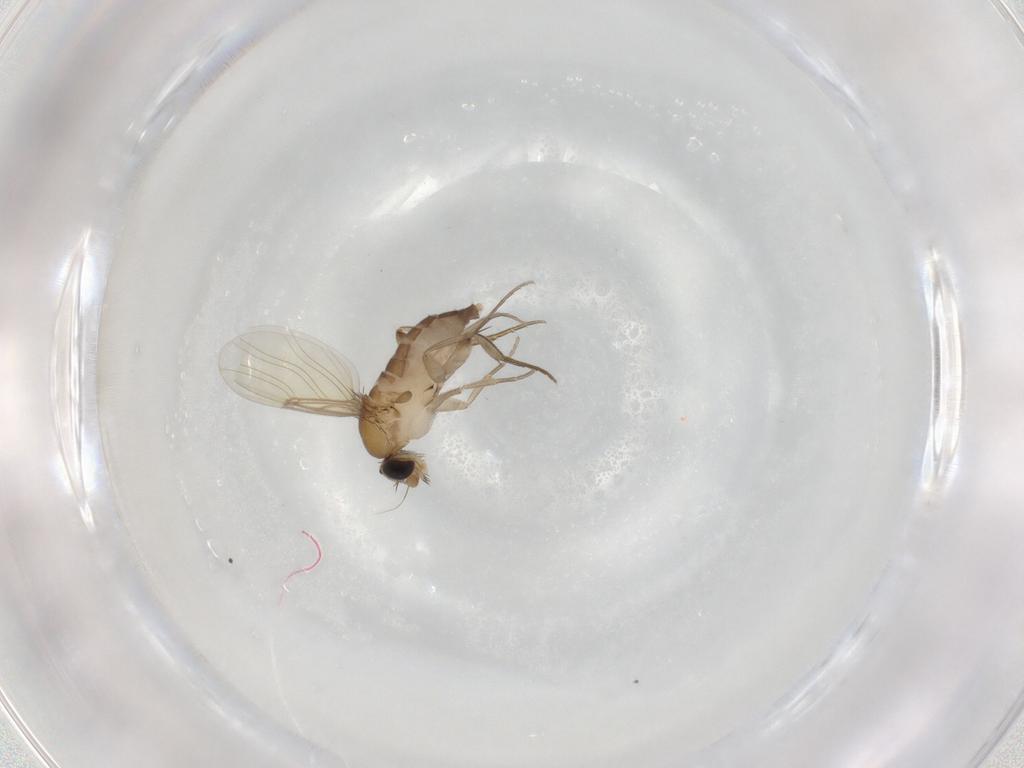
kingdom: Animalia
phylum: Arthropoda
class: Insecta
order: Diptera
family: Phoridae
